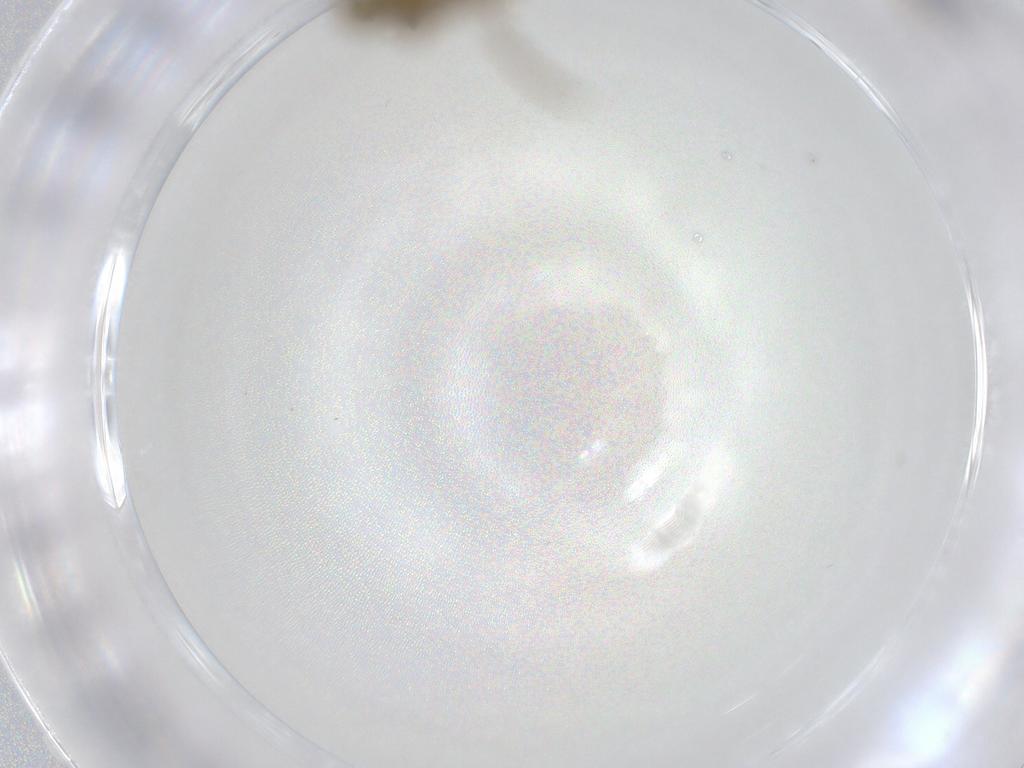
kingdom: Animalia
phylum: Arthropoda
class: Insecta
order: Neuroptera
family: Coniopterygidae
